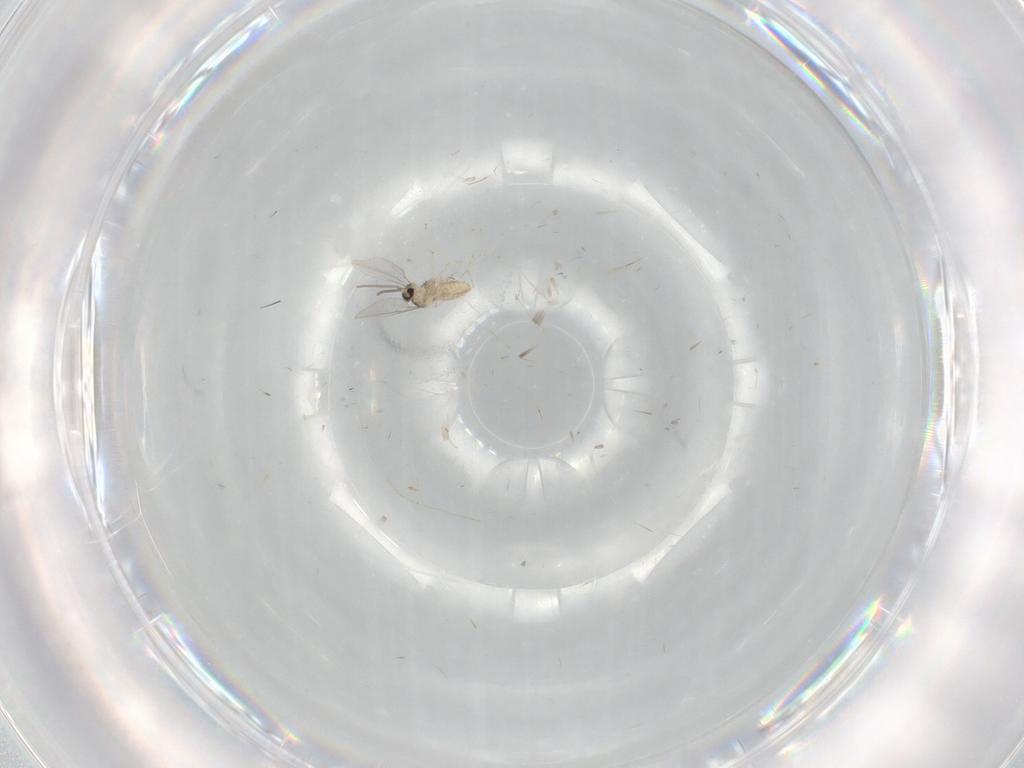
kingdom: Animalia
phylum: Arthropoda
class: Insecta
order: Diptera
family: Cecidomyiidae
